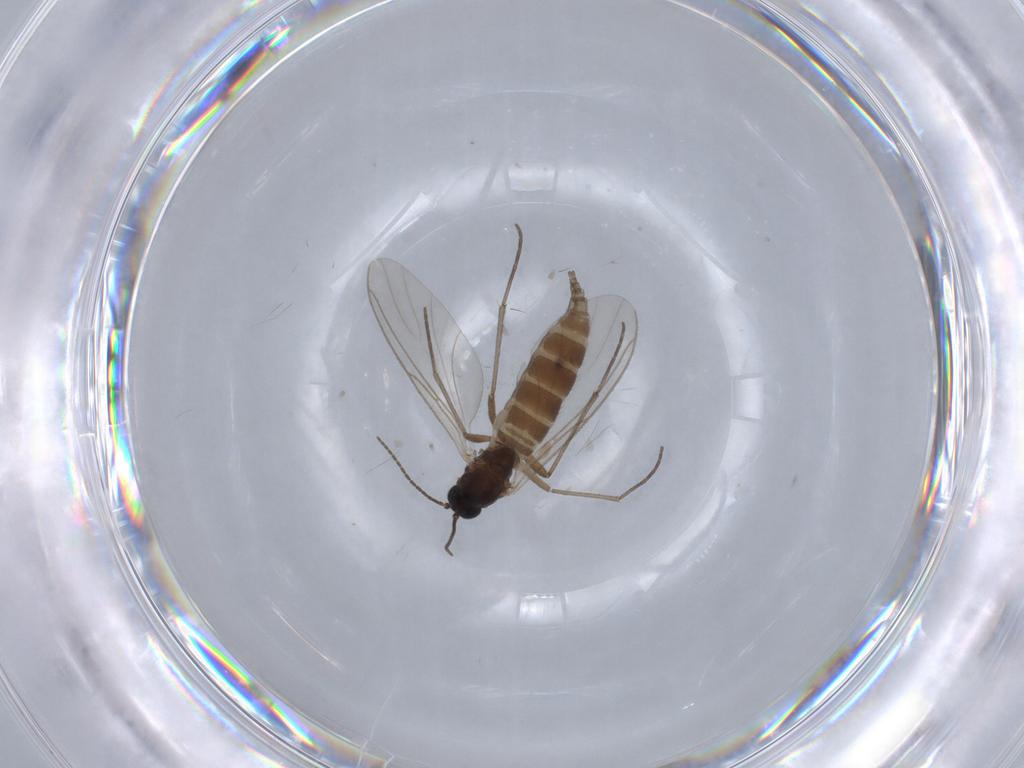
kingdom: Animalia
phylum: Arthropoda
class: Insecta
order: Diptera
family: Sciaridae
